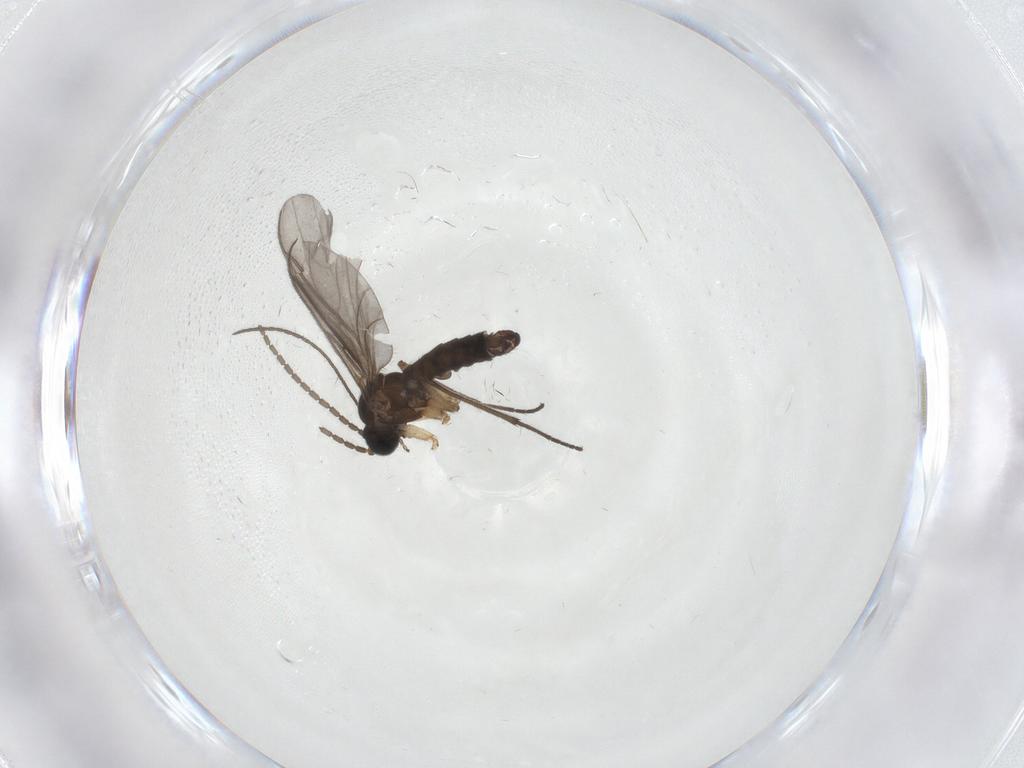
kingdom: Animalia
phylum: Arthropoda
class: Insecta
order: Diptera
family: Sciaridae
